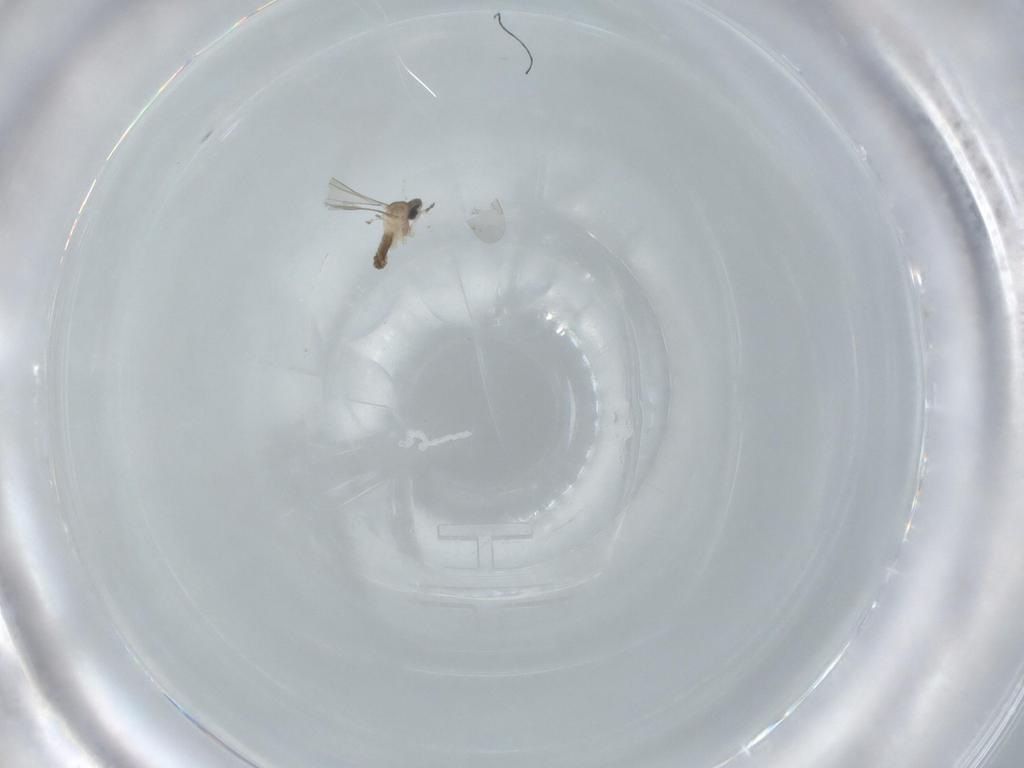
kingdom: Animalia
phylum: Arthropoda
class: Insecta
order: Diptera
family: Cecidomyiidae
